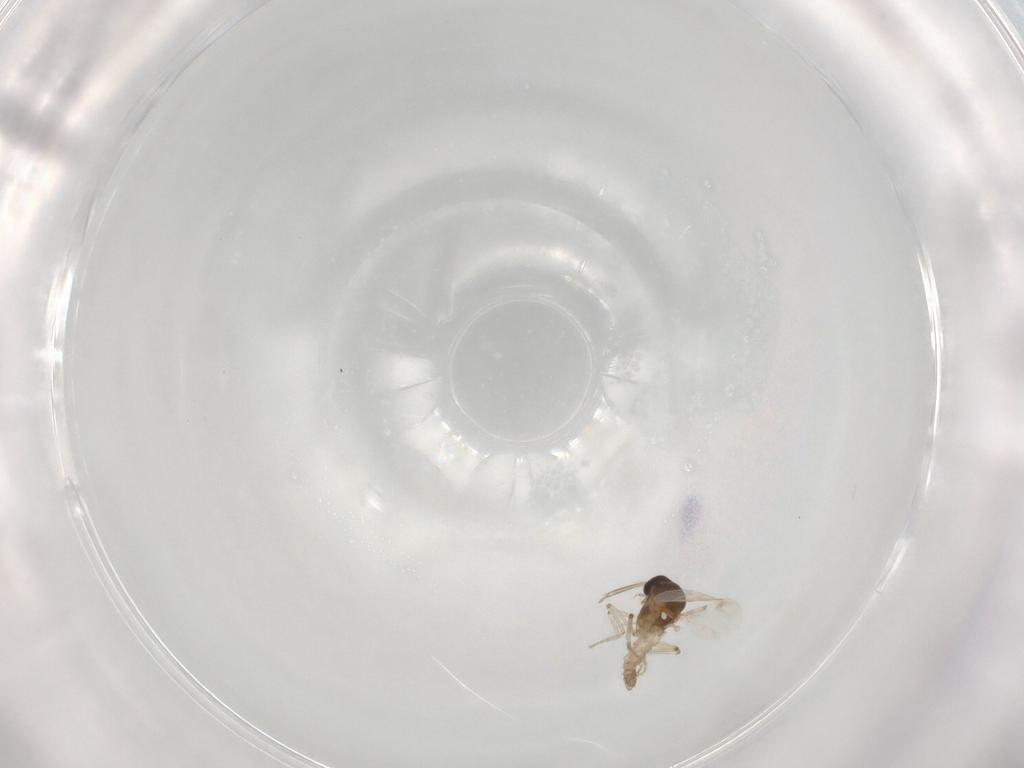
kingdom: Animalia
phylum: Arthropoda
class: Insecta
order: Diptera
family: Ceratopogonidae
